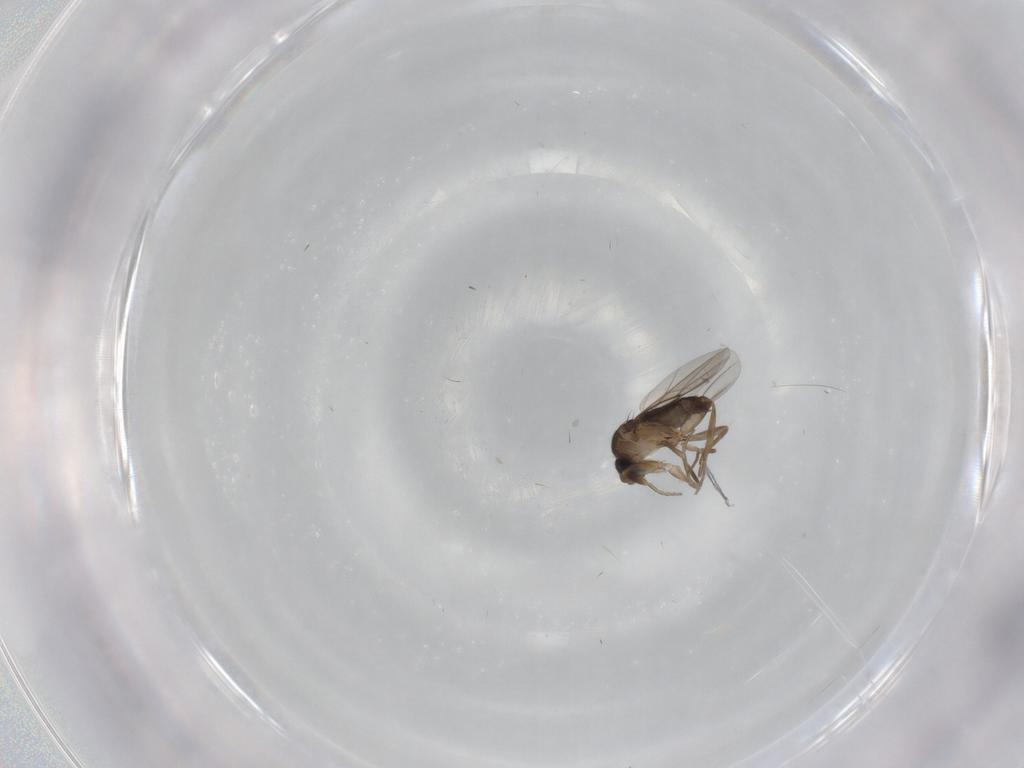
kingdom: Animalia
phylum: Arthropoda
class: Insecta
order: Diptera
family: Phoridae
